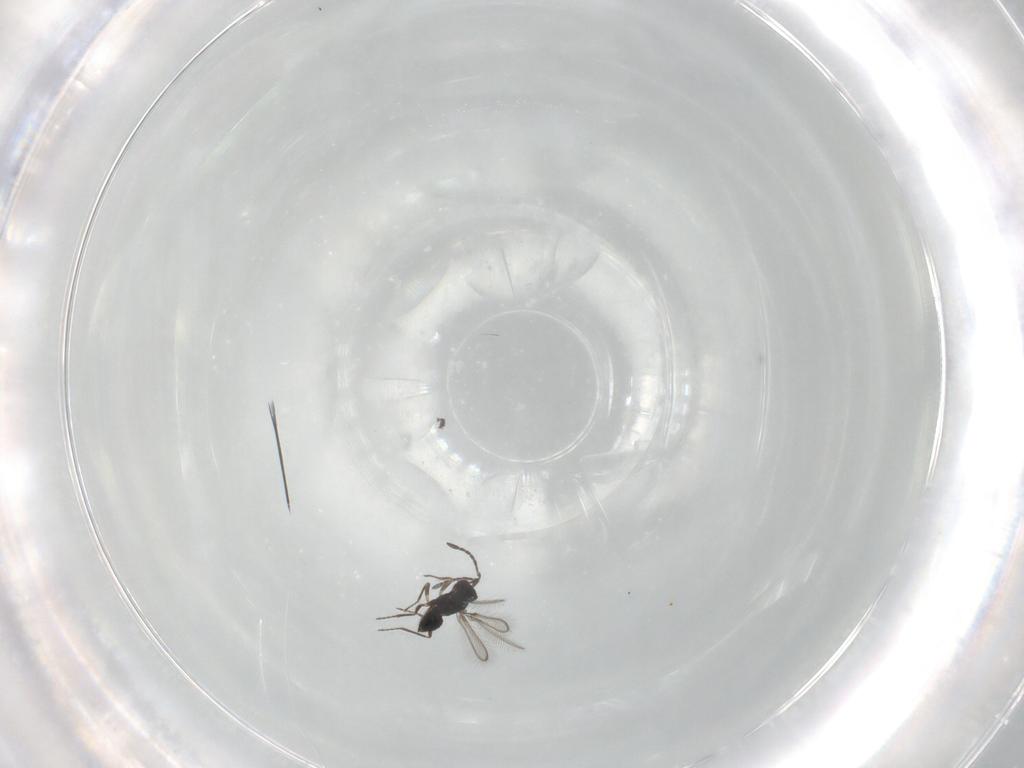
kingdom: Animalia
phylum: Arthropoda
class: Insecta
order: Diptera
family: Chironomidae
